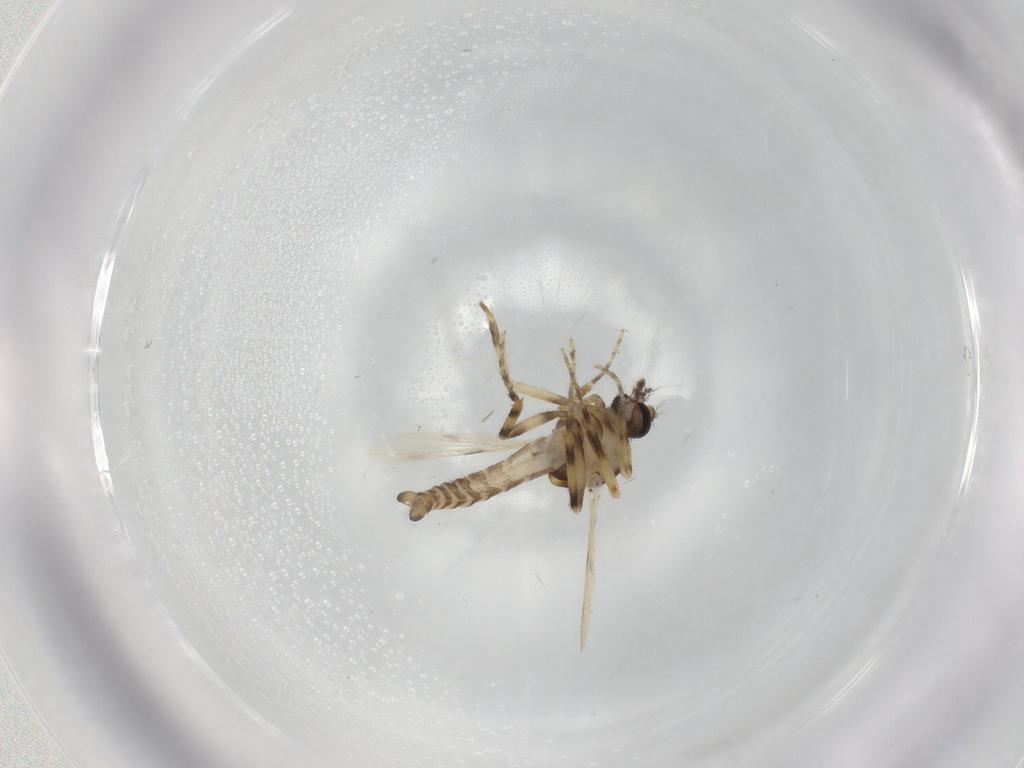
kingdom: Animalia
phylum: Arthropoda
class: Insecta
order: Diptera
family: Ceratopogonidae
